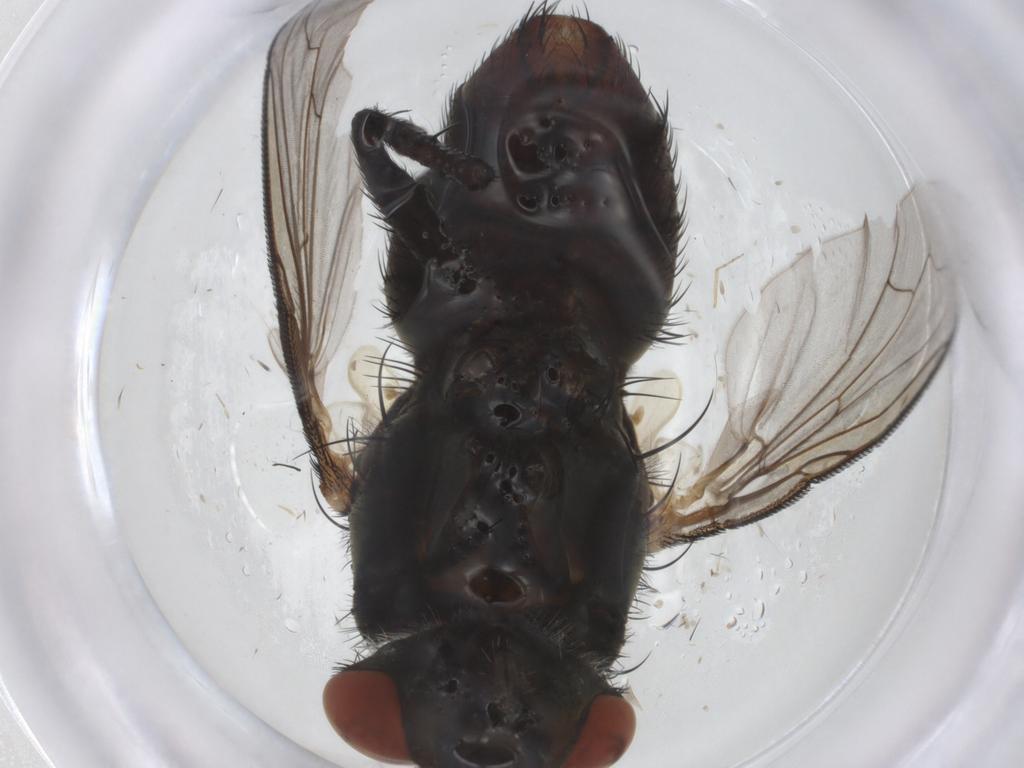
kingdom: Animalia
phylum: Arthropoda
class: Insecta
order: Diptera
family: Sarcophagidae
